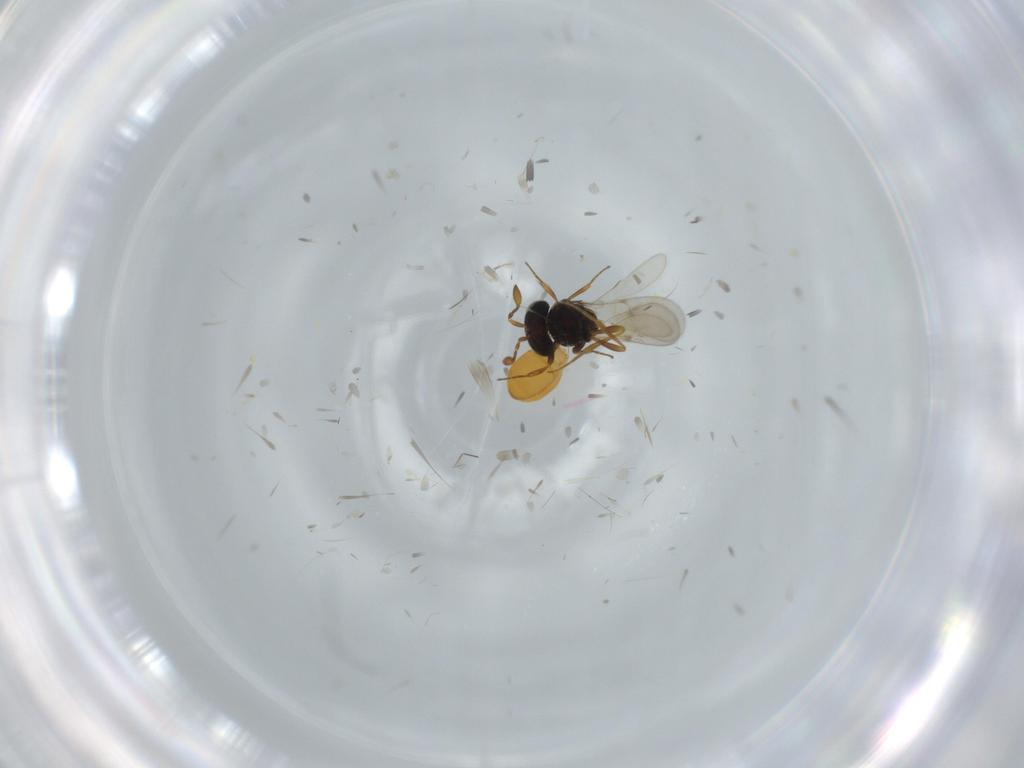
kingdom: Animalia
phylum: Arthropoda
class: Insecta
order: Hymenoptera
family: Scelionidae
